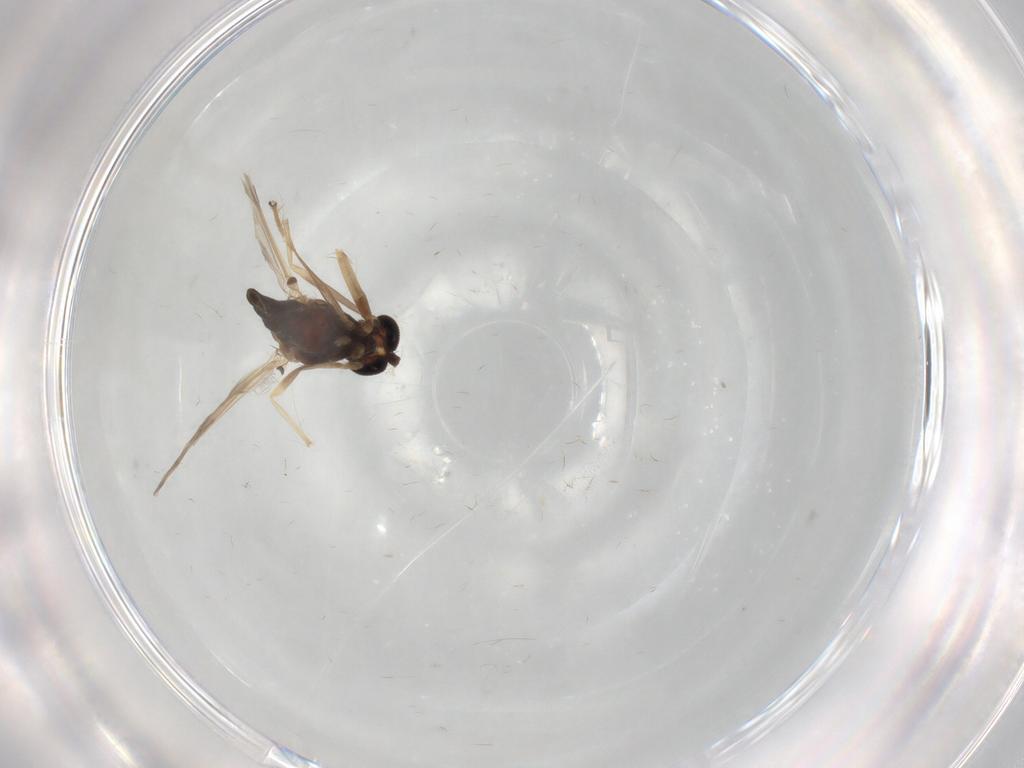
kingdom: Animalia
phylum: Arthropoda
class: Insecta
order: Diptera
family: Chironomidae
